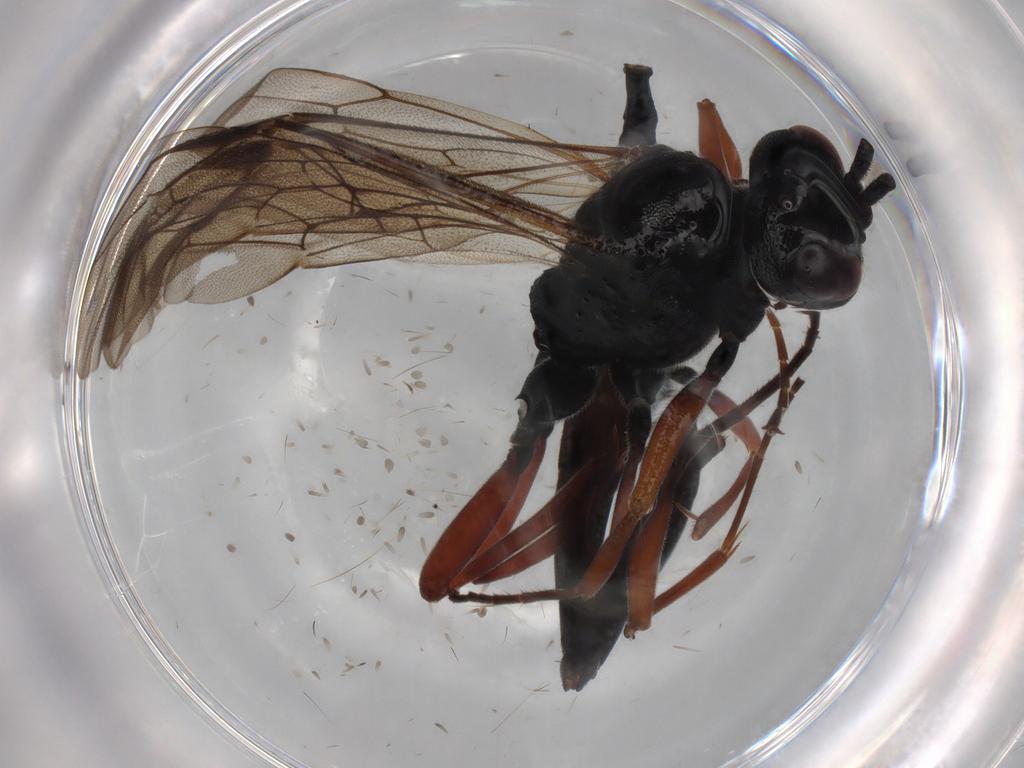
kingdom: Animalia
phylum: Arthropoda
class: Insecta
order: Hymenoptera
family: Ichneumonidae
